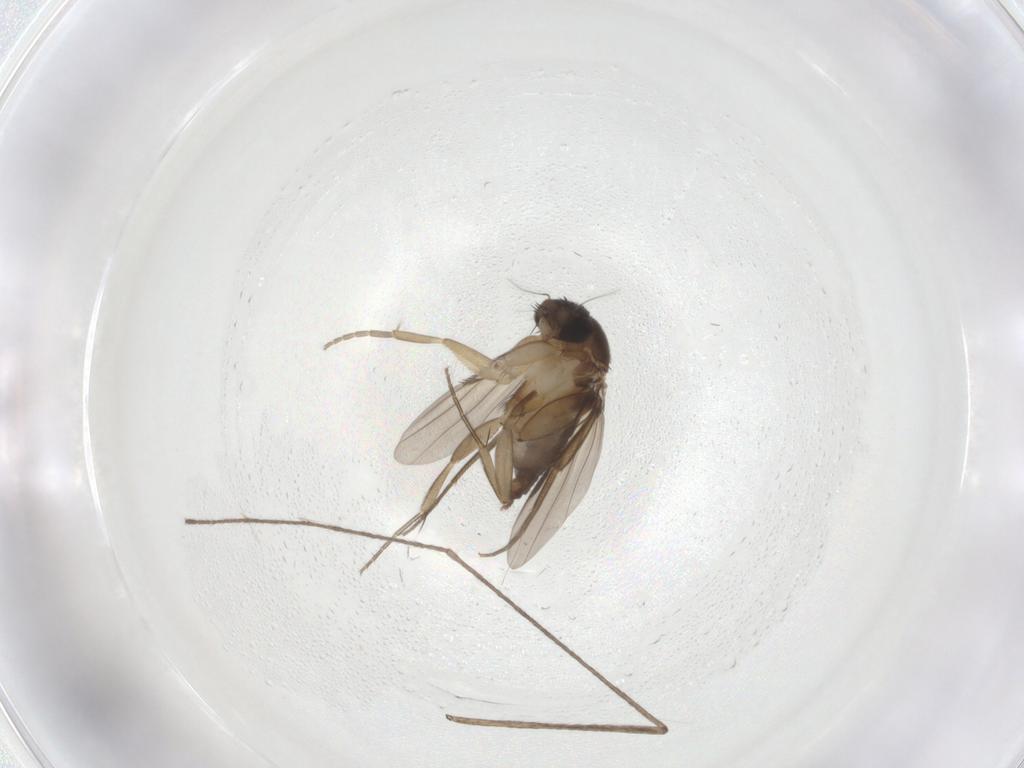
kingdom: Animalia
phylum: Arthropoda
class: Insecta
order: Diptera
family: Phoridae
